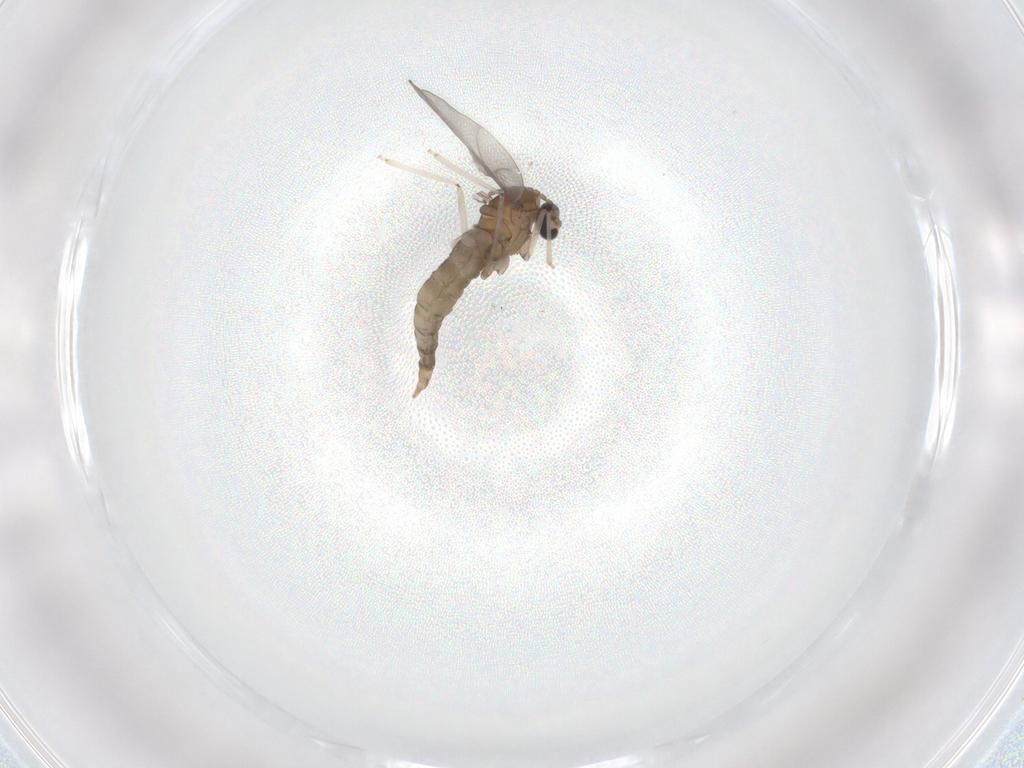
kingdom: Animalia
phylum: Arthropoda
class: Insecta
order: Diptera
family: Cecidomyiidae
